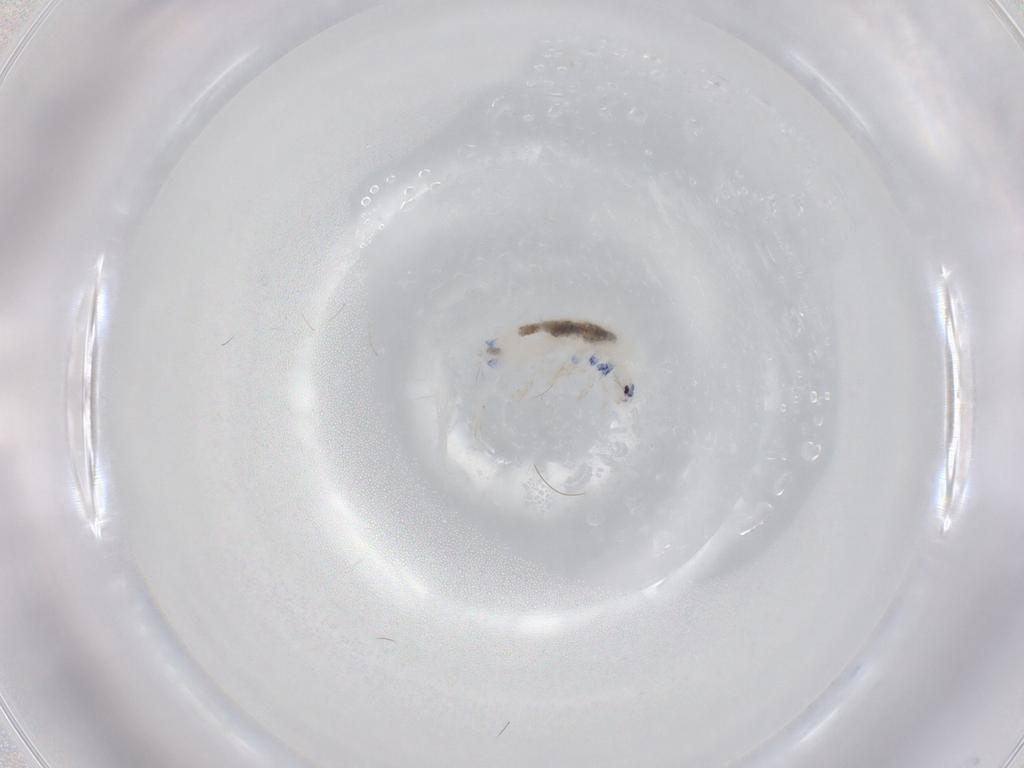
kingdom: Animalia
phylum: Arthropoda
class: Collembola
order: Entomobryomorpha
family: Entomobryidae
